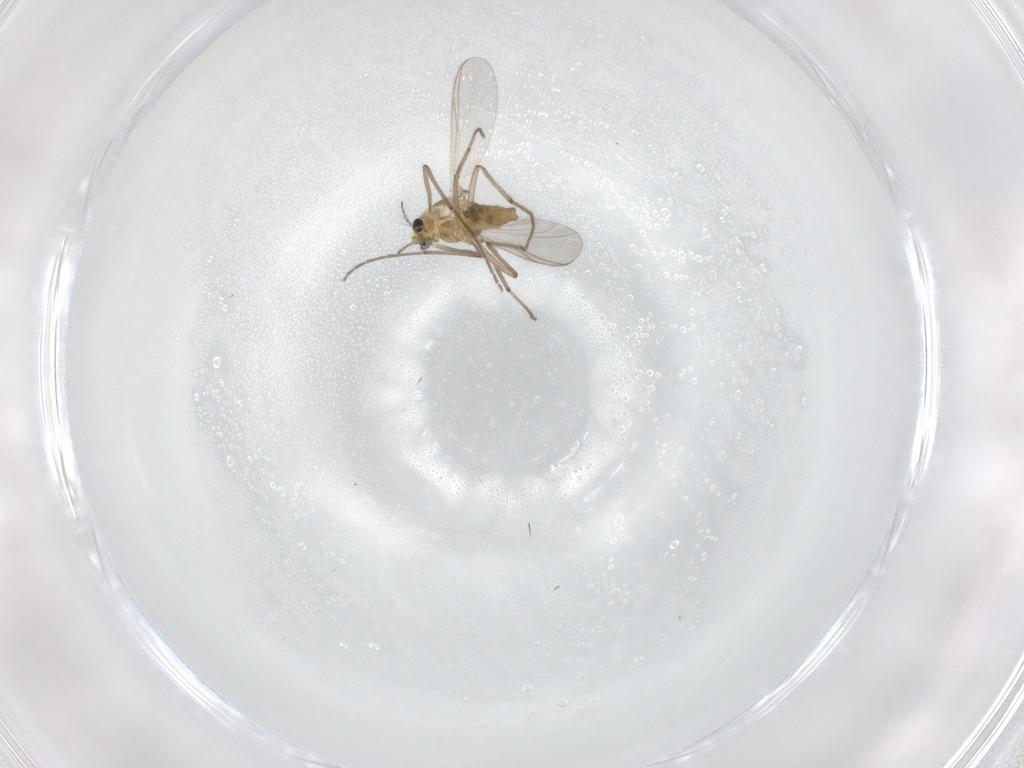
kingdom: Animalia
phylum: Arthropoda
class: Insecta
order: Diptera
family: Chironomidae
